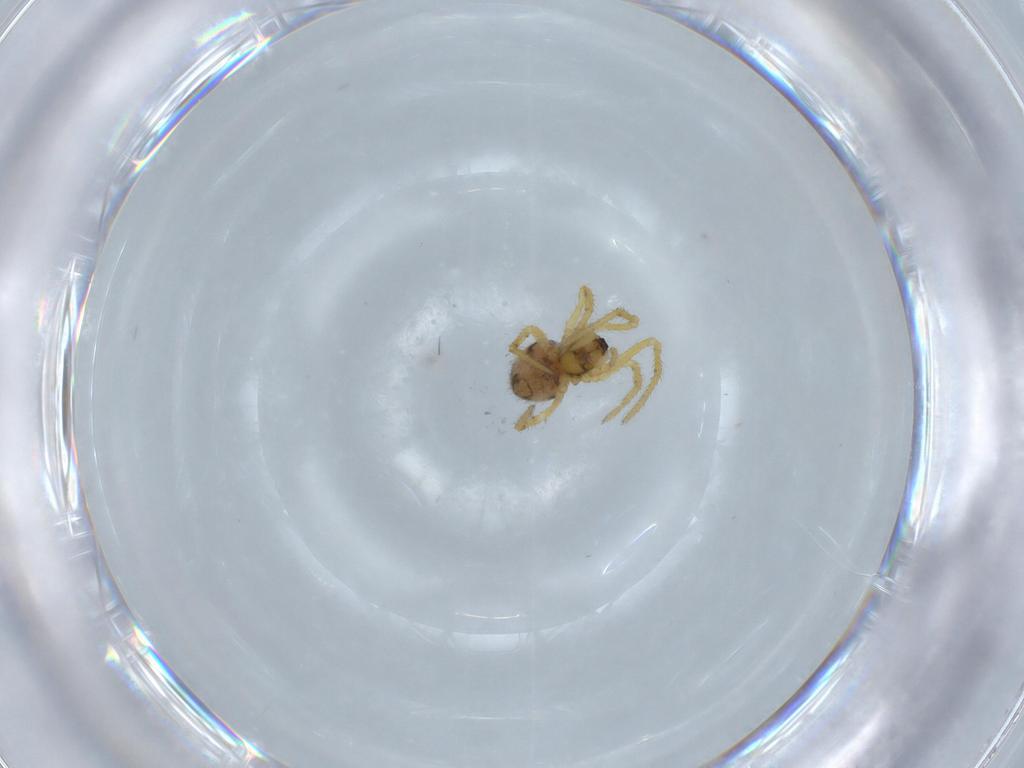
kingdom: Animalia
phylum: Arthropoda
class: Arachnida
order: Araneae
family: Theridiidae
